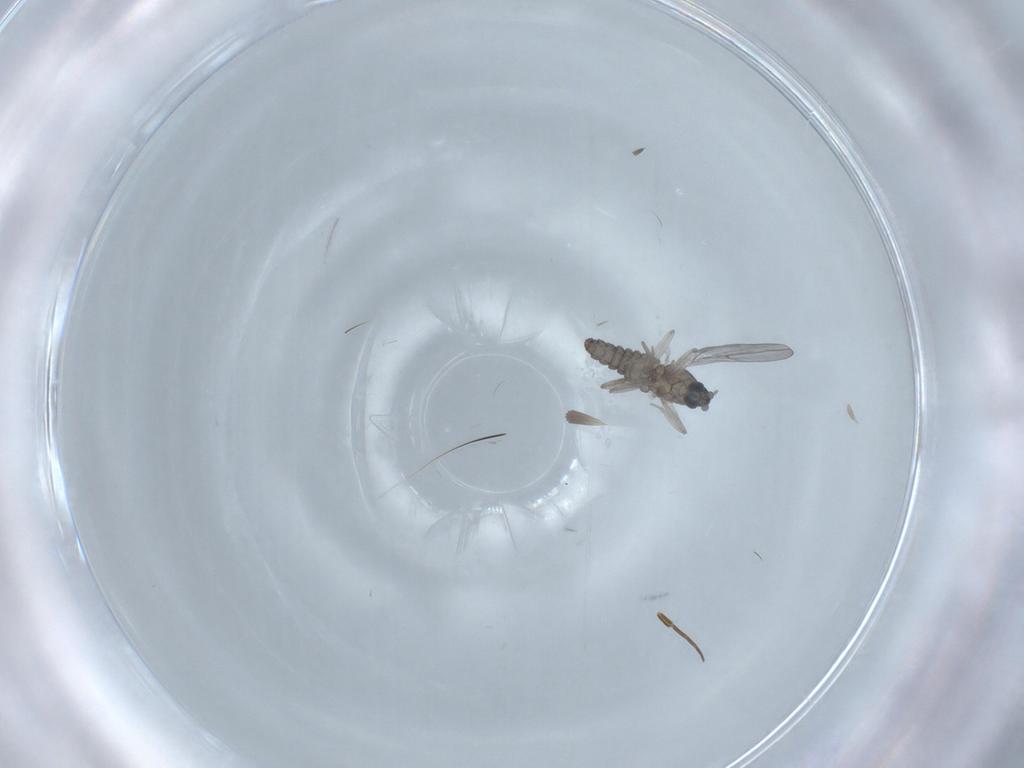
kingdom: Animalia
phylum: Arthropoda
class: Insecta
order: Diptera
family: Phoridae
